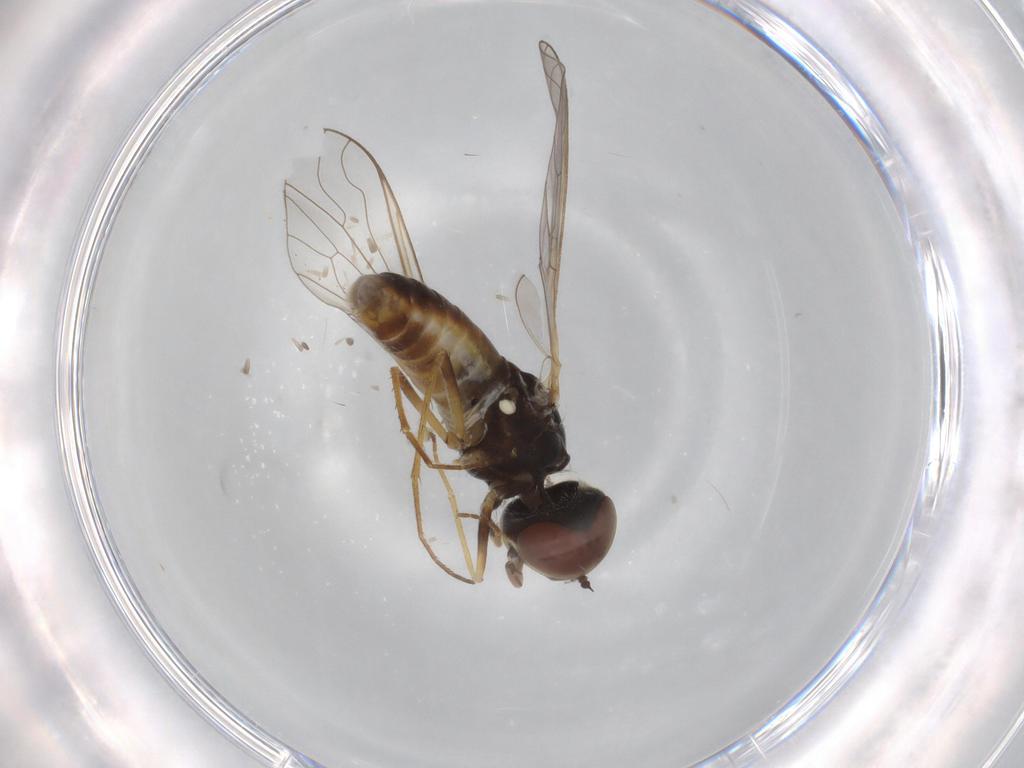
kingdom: Animalia
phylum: Arthropoda
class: Insecta
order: Diptera
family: Bombyliidae
